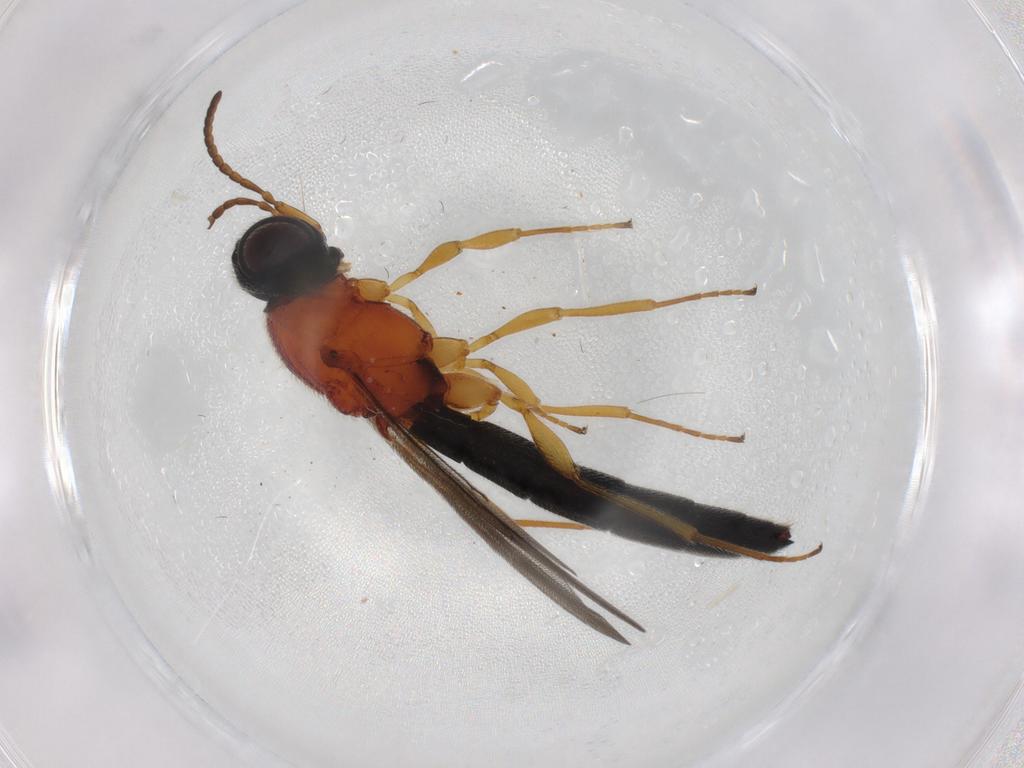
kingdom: Animalia
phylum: Arthropoda
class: Insecta
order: Hymenoptera
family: Scelionidae
